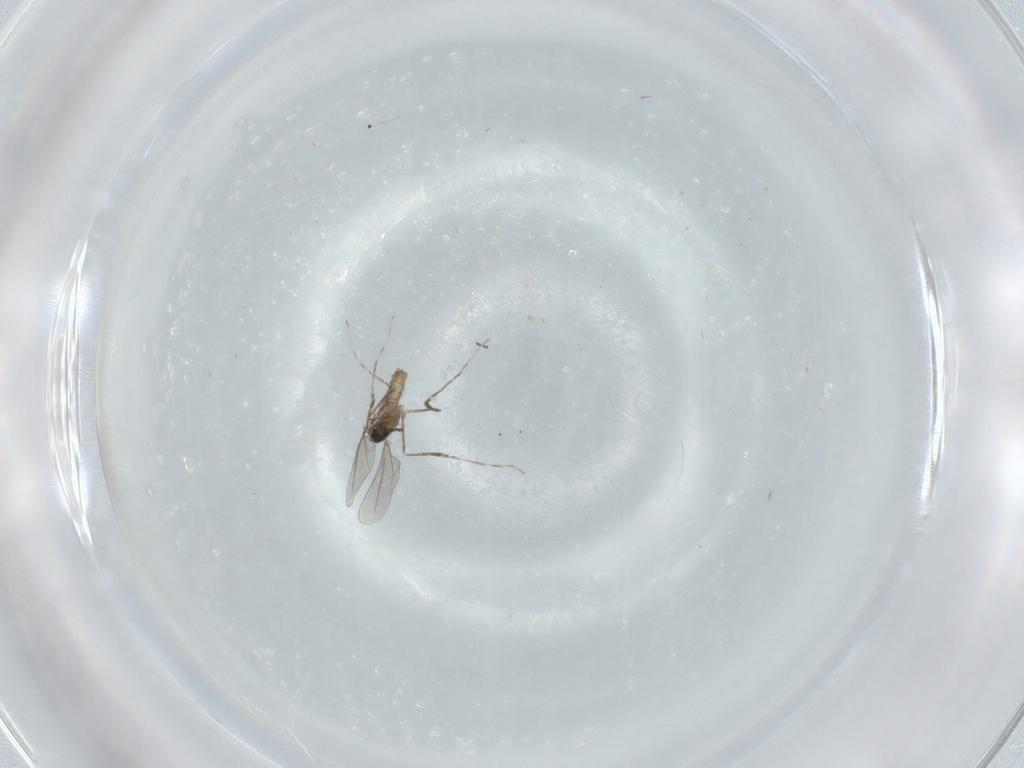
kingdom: Animalia
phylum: Arthropoda
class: Insecta
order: Diptera
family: Cecidomyiidae
